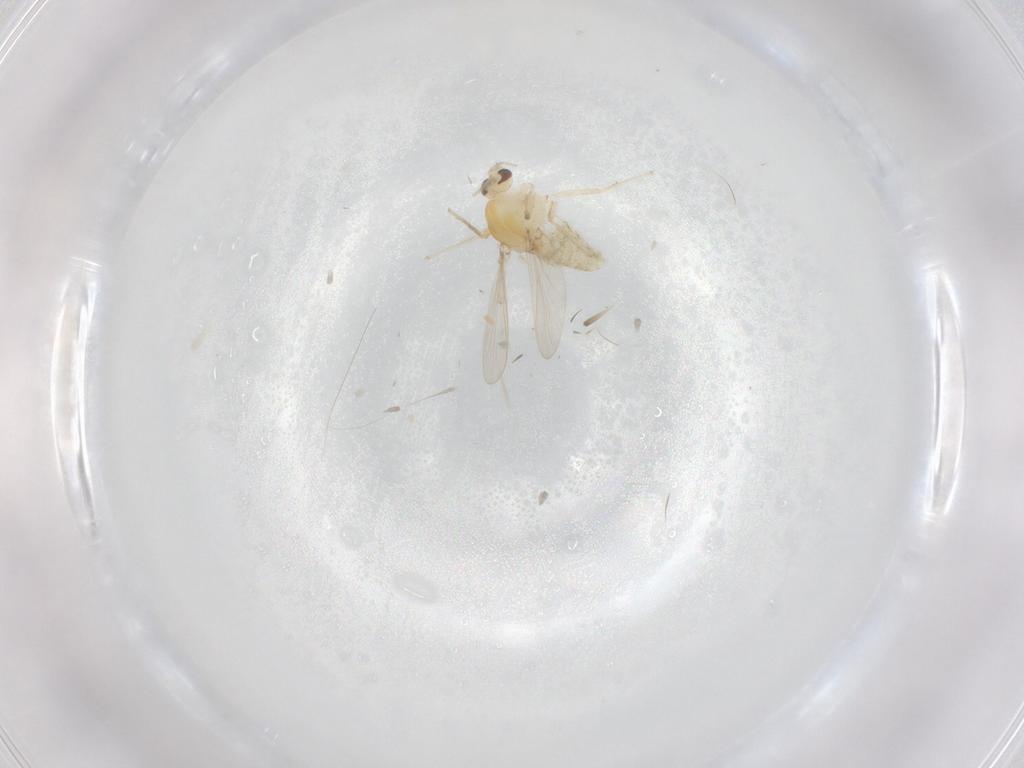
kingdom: Animalia
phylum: Arthropoda
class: Insecta
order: Diptera
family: Chironomidae
